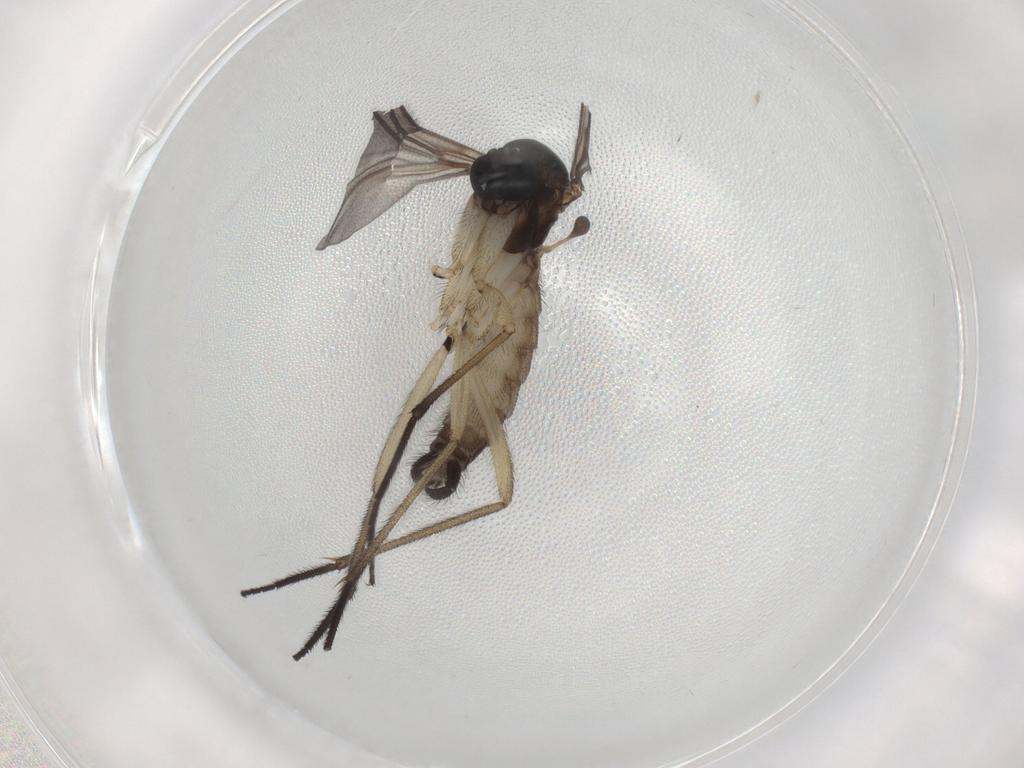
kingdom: Animalia
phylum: Arthropoda
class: Insecta
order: Diptera
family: Sciaridae
